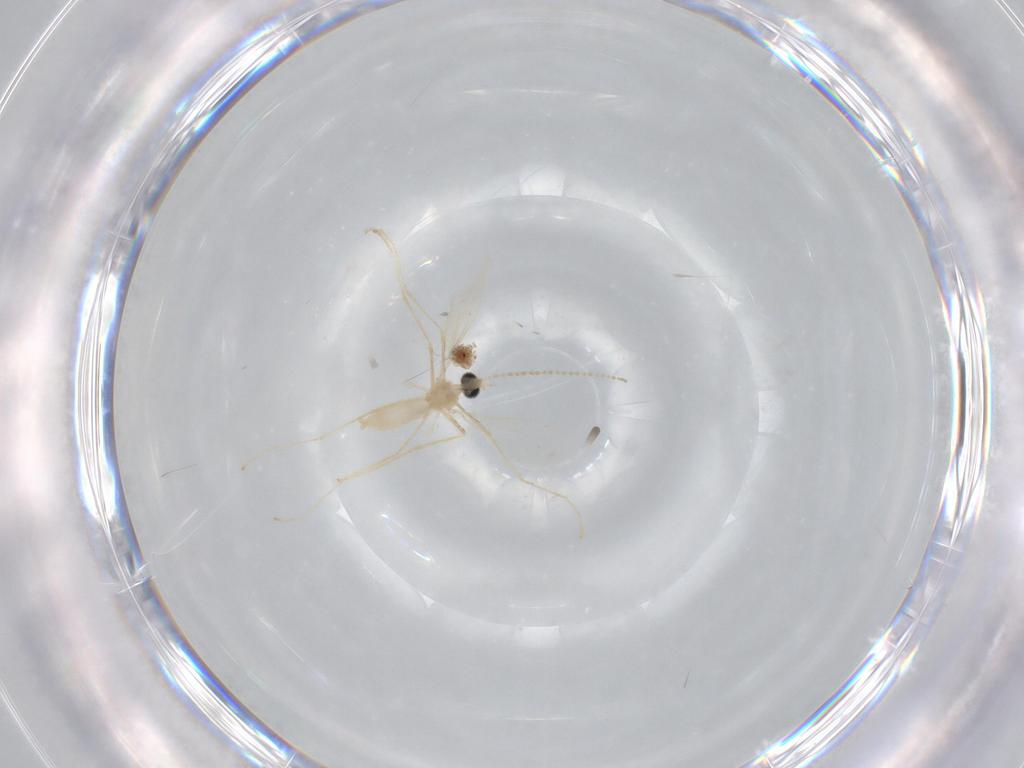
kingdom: Animalia
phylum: Arthropoda
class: Insecta
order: Diptera
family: Cecidomyiidae
